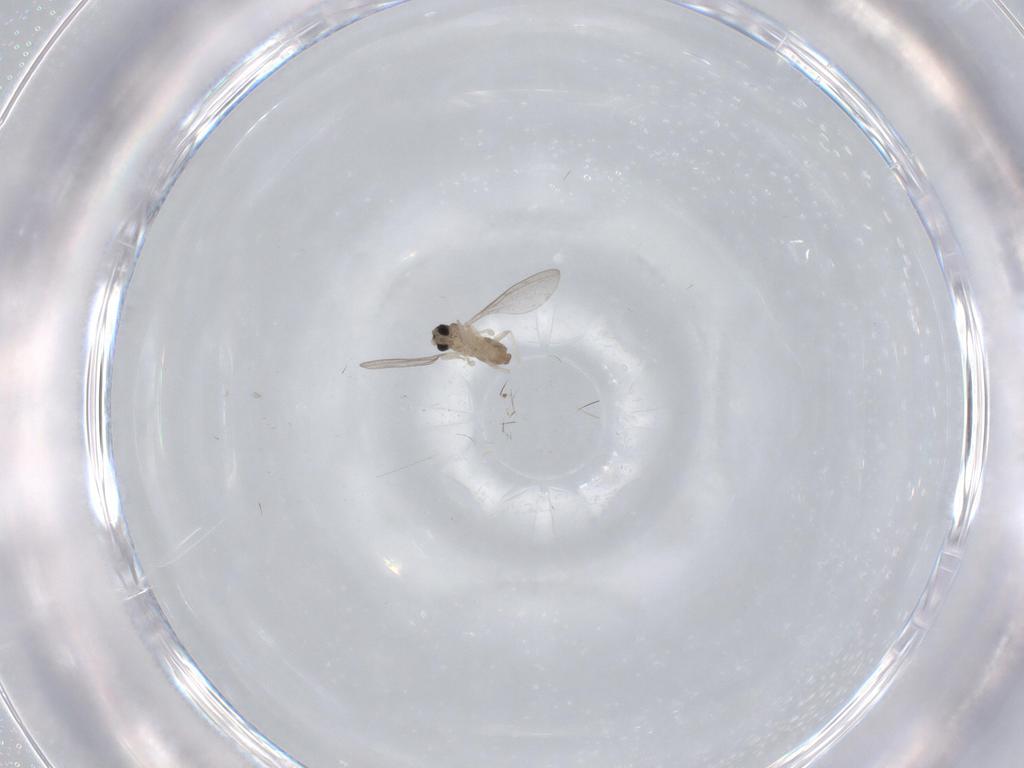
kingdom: Animalia
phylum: Arthropoda
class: Insecta
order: Diptera
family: Cecidomyiidae
